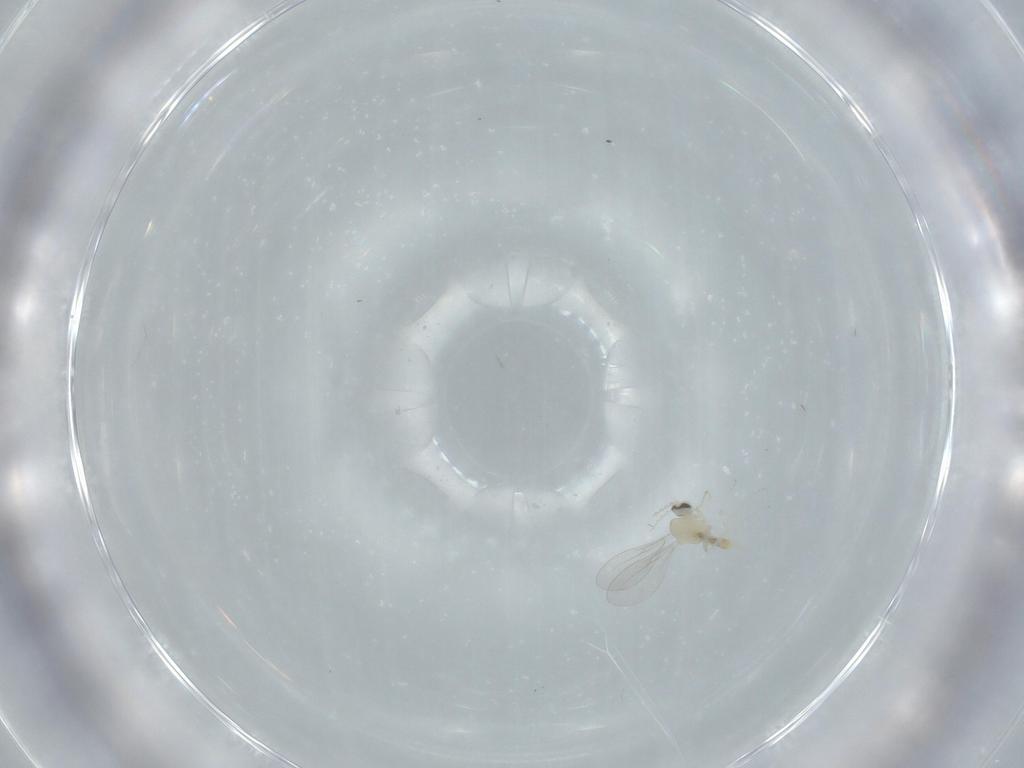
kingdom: Animalia
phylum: Arthropoda
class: Insecta
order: Diptera
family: Cecidomyiidae
